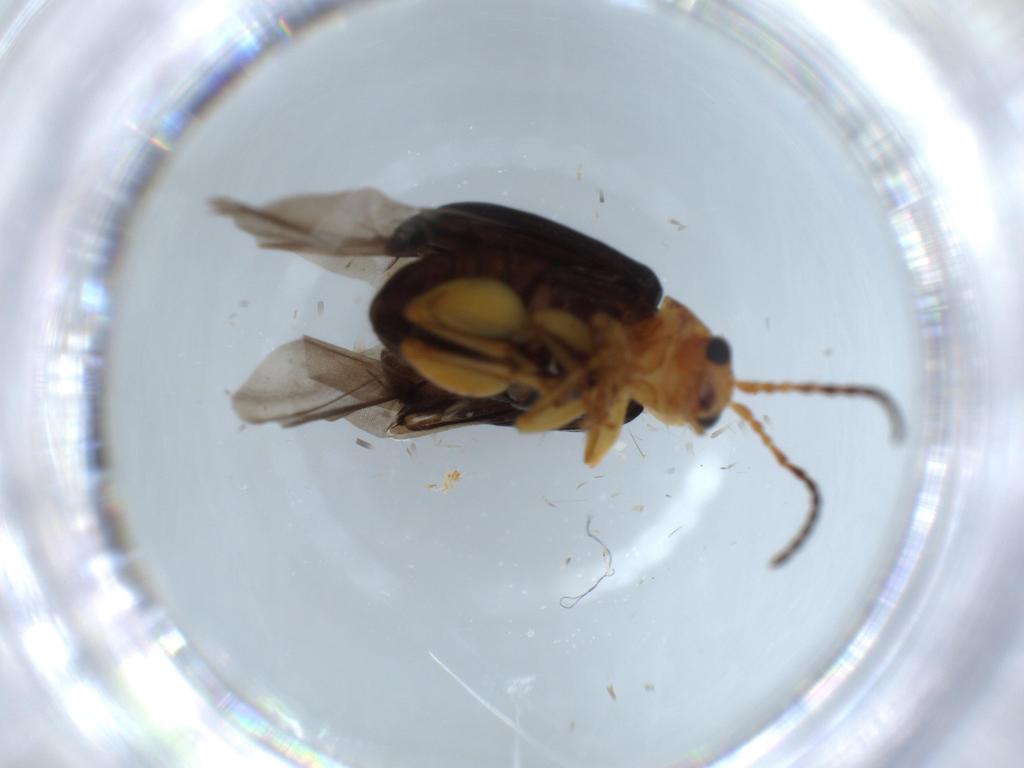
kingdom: Animalia
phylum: Arthropoda
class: Insecta
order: Coleoptera
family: Chrysomelidae
